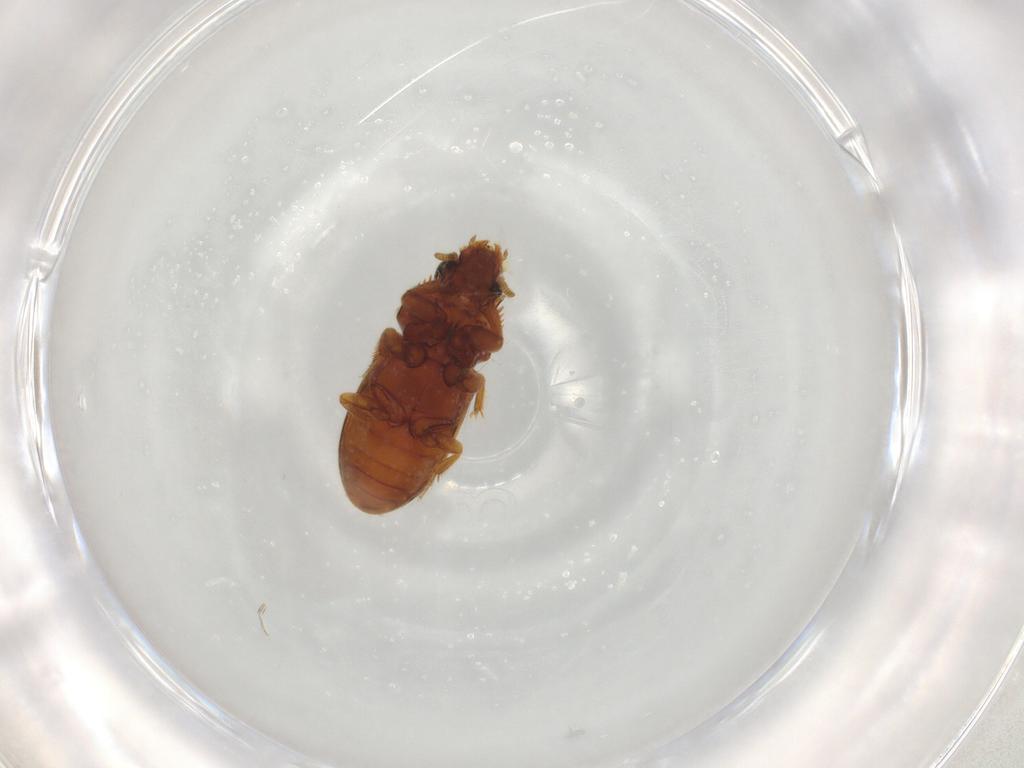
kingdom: Animalia
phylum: Arthropoda
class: Insecta
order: Coleoptera
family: Heteroceridae
